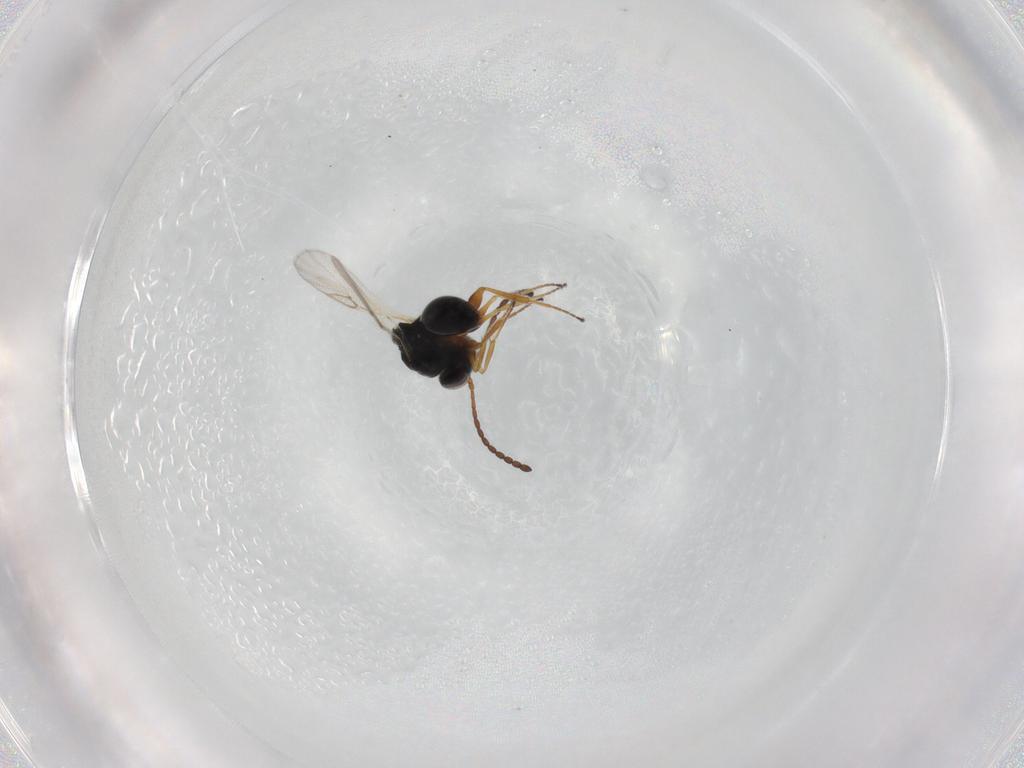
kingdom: Animalia
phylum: Arthropoda
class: Insecta
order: Hymenoptera
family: Figitidae
